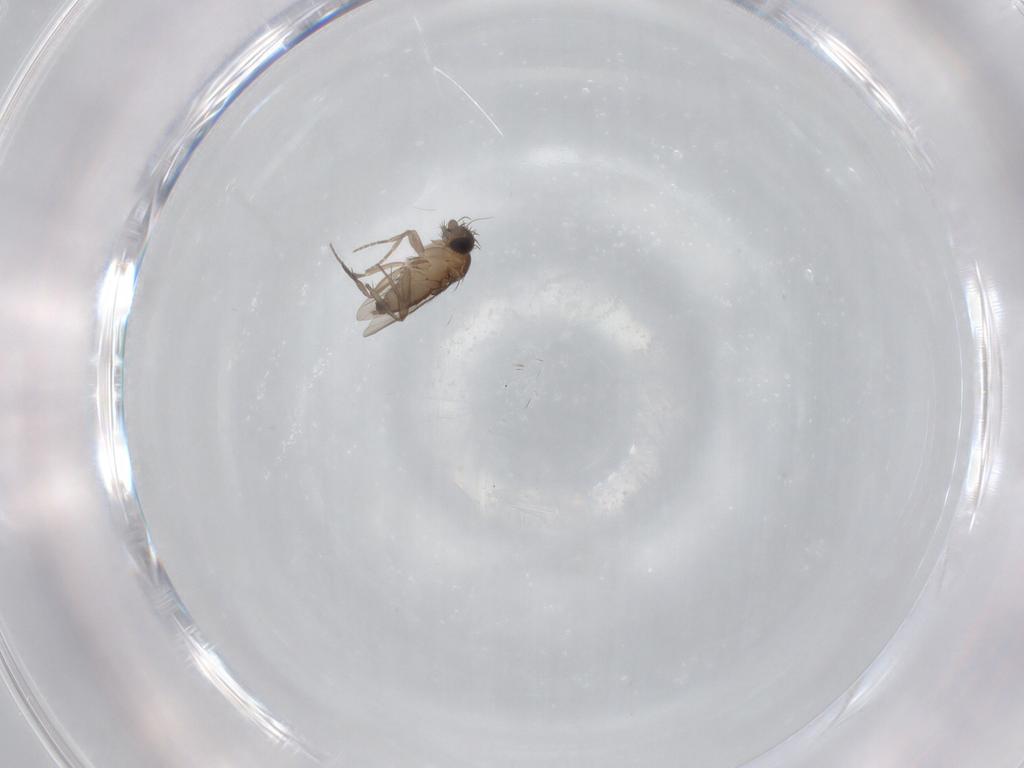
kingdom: Animalia
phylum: Arthropoda
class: Insecta
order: Diptera
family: Phoridae
